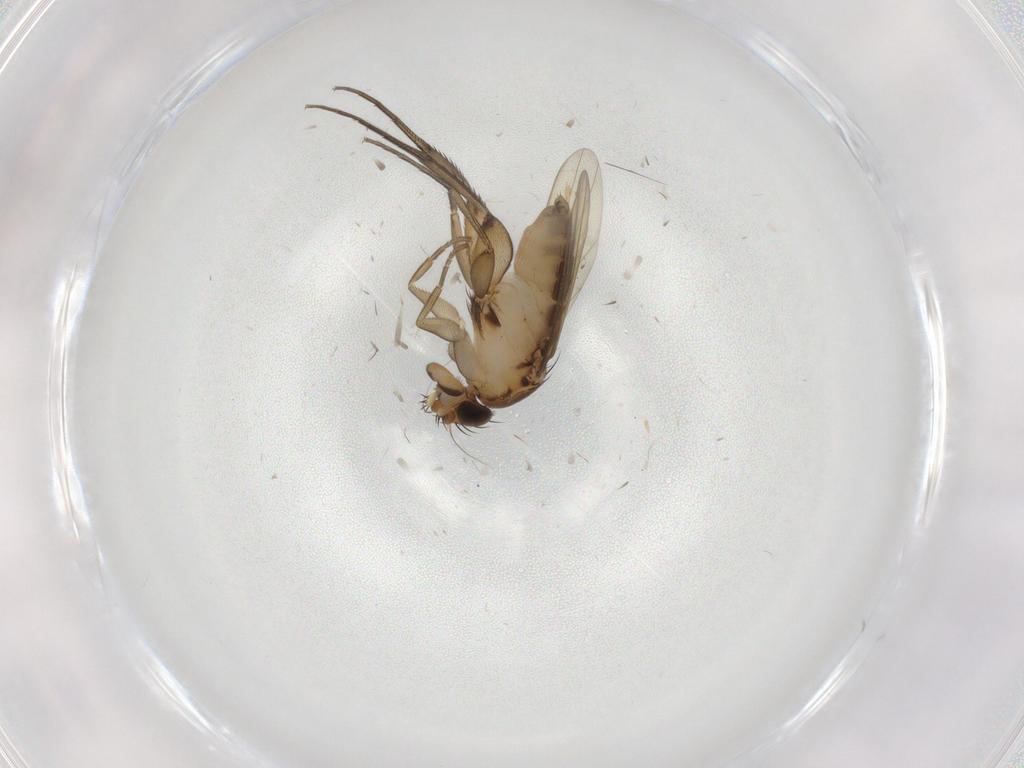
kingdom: Animalia
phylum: Arthropoda
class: Insecta
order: Diptera
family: Phoridae
